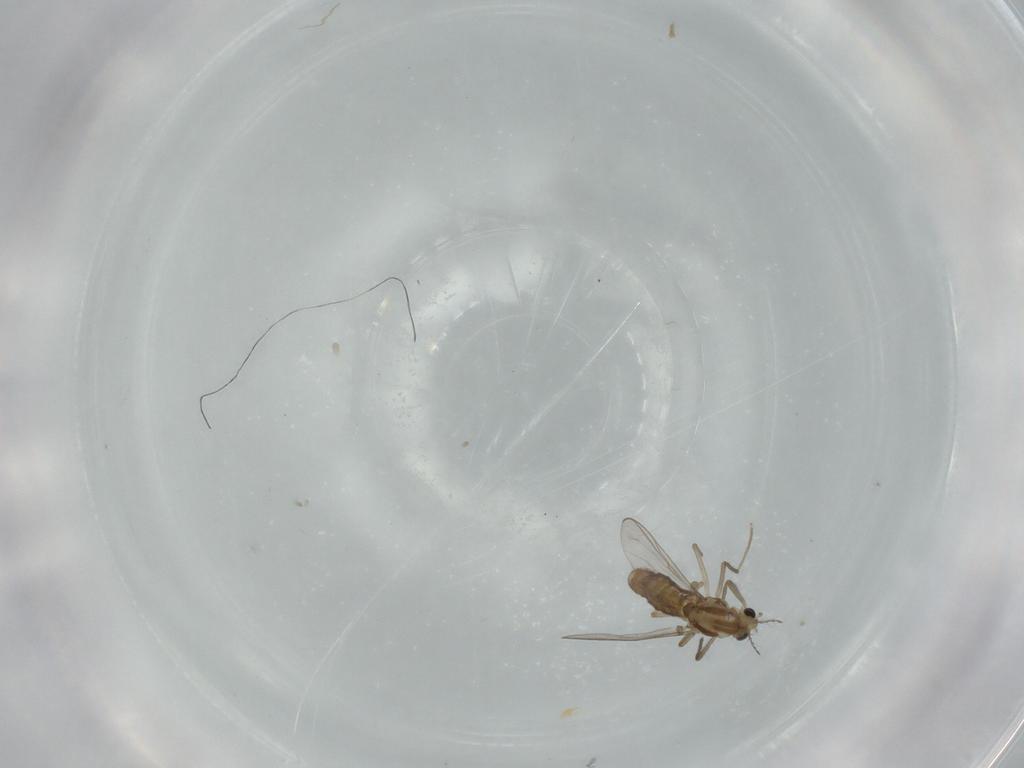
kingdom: Animalia
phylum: Arthropoda
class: Insecta
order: Diptera
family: Chironomidae
